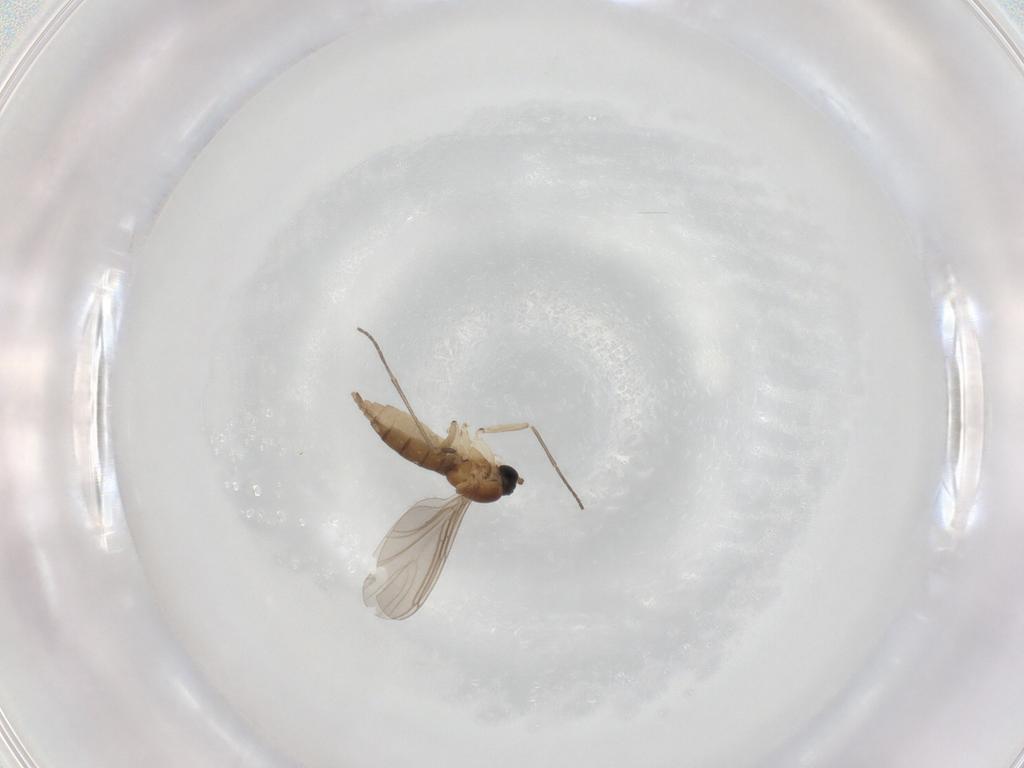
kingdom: Animalia
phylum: Arthropoda
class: Insecta
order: Diptera
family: Sciaridae
